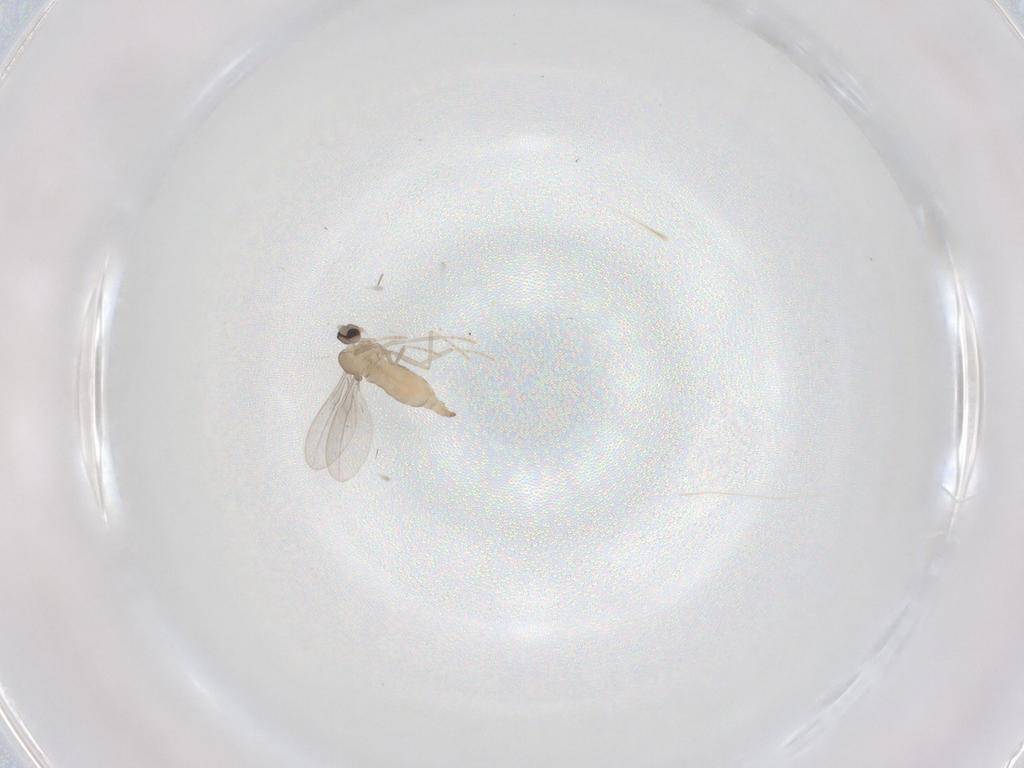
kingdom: Animalia
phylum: Arthropoda
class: Insecta
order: Diptera
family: Cecidomyiidae
